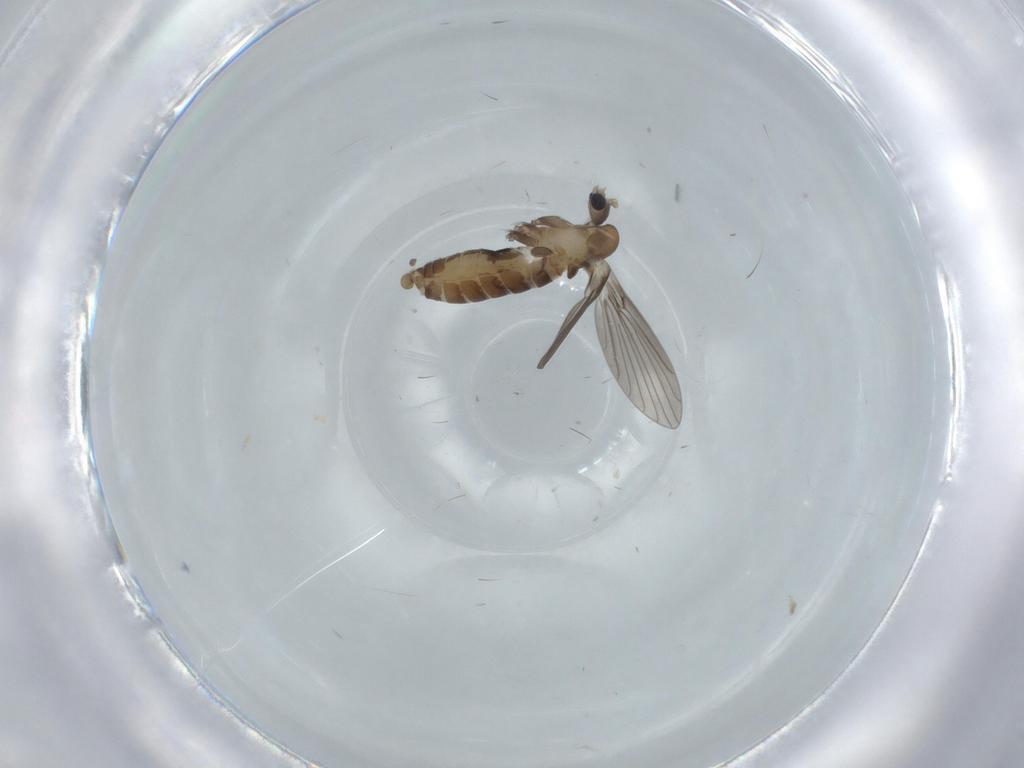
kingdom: Animalia
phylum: Arthropoda
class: Insecta
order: Diptera
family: Psychodidae
